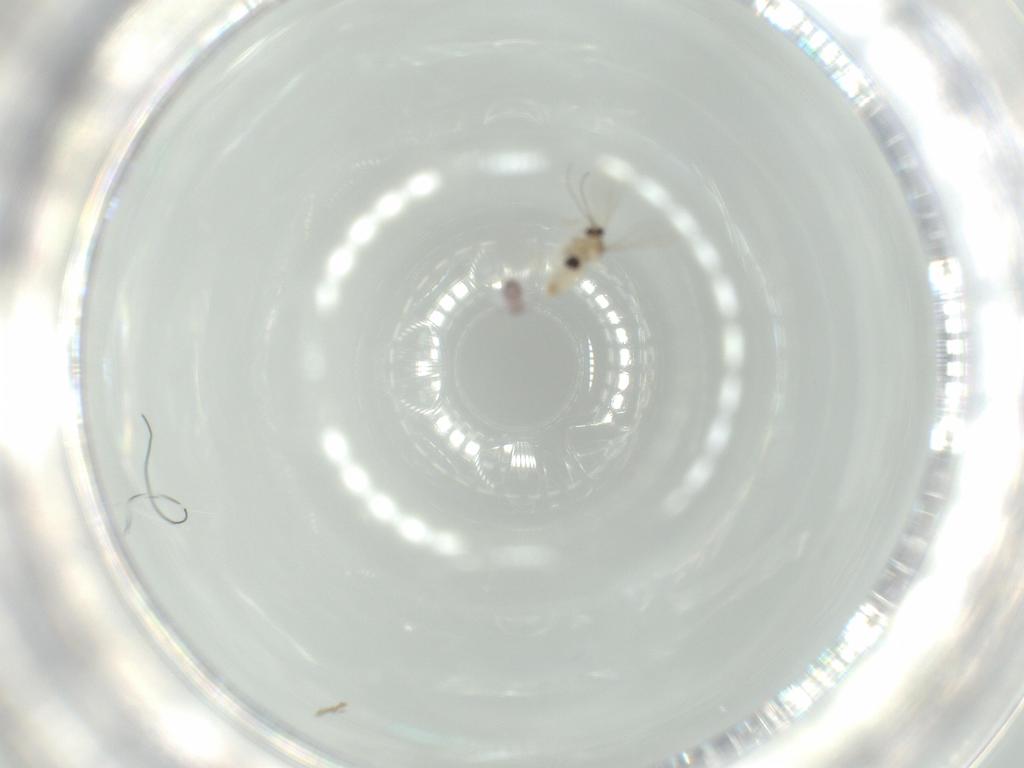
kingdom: Animalia
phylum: Arthropoda
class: Insecta
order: Diptera
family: Cecidomyiidae
